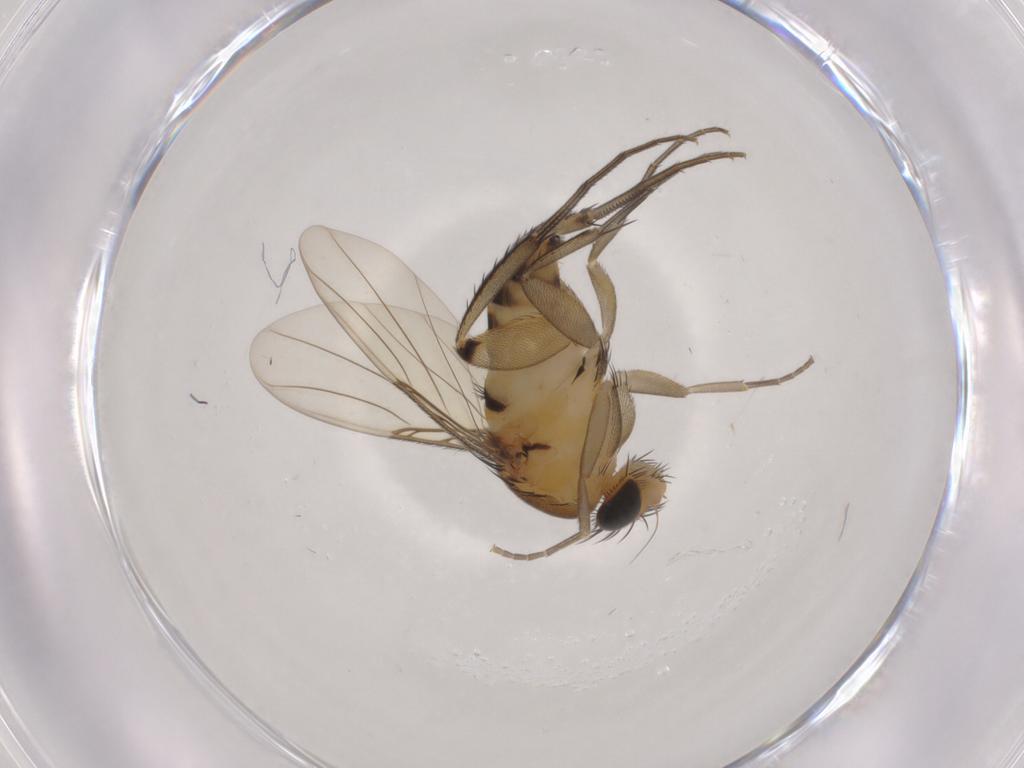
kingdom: Animalia
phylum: Arthropoda
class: Insecta
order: Diptera
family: Phoridae
